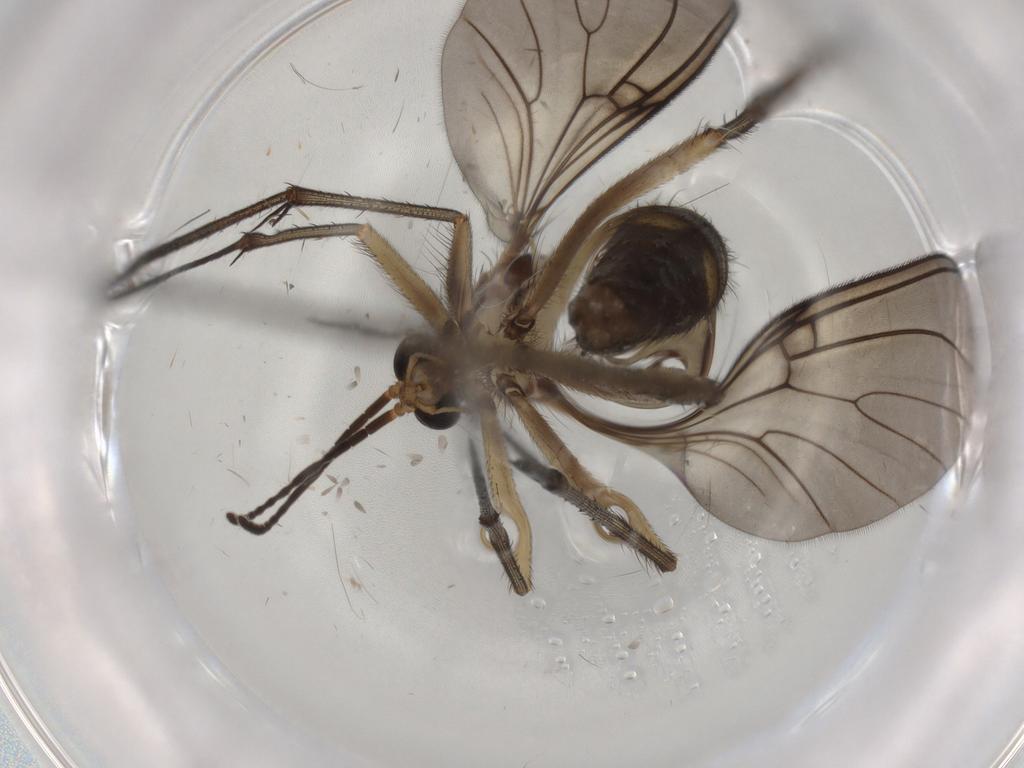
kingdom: Animalia
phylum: Arthropoda
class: Insecta
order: Diptera
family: Mycetophilidae
